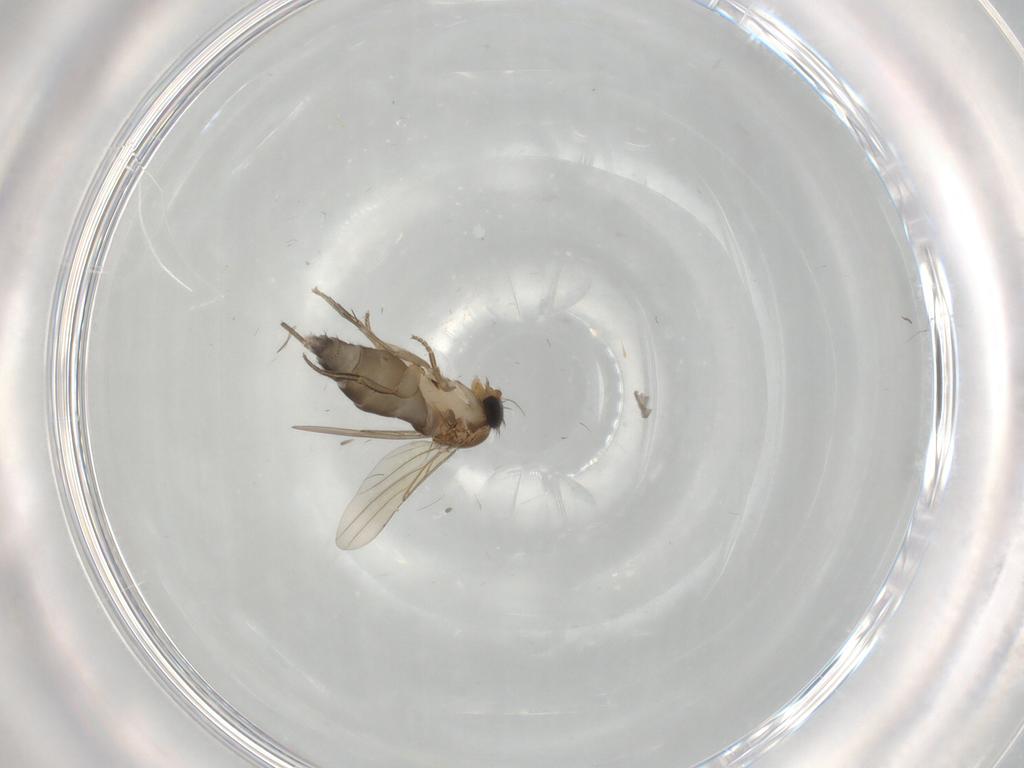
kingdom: Animalia
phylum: Arthropoda
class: Insecta
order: Diptera
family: Phoridae
